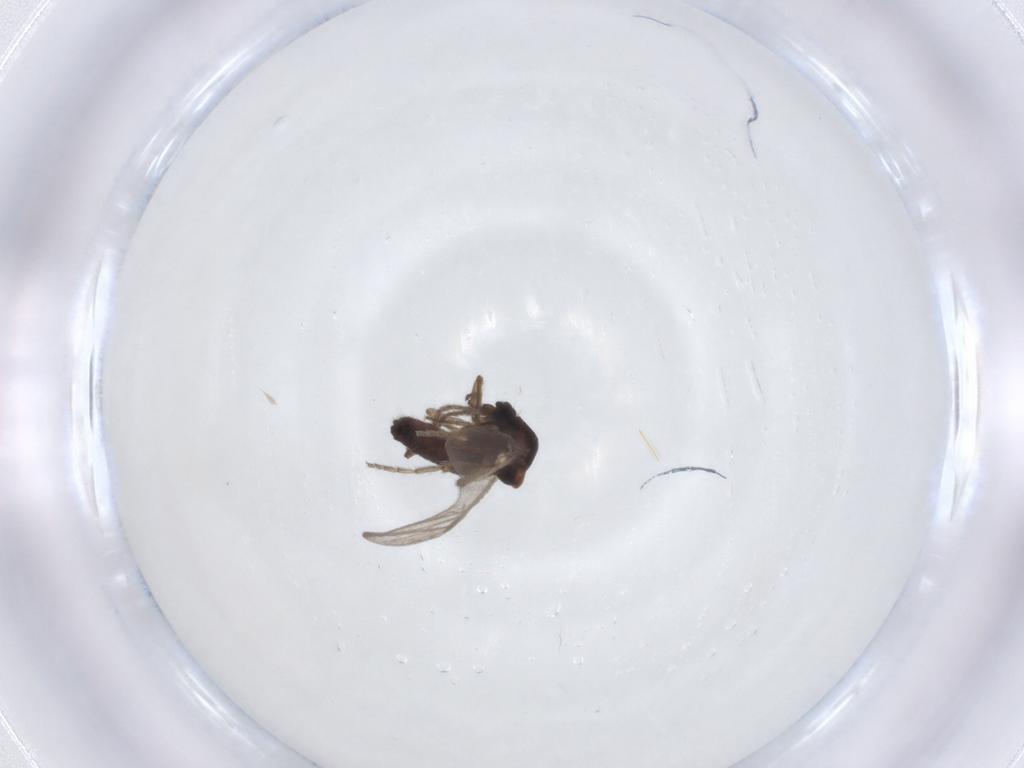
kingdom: Animalia
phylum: Arthropoda
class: Insecta
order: Diptera
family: Ceratopogonidae
